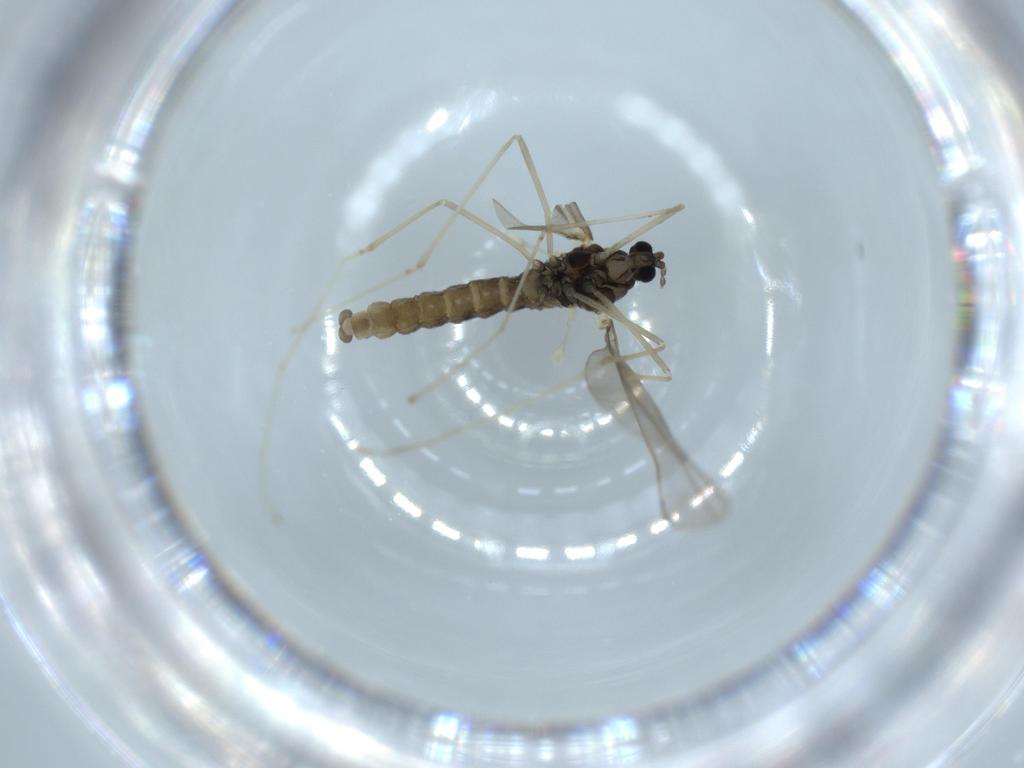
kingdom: Animalia
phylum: Arthropoda
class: Insecta
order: Diptera
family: Cecidomyiidae
